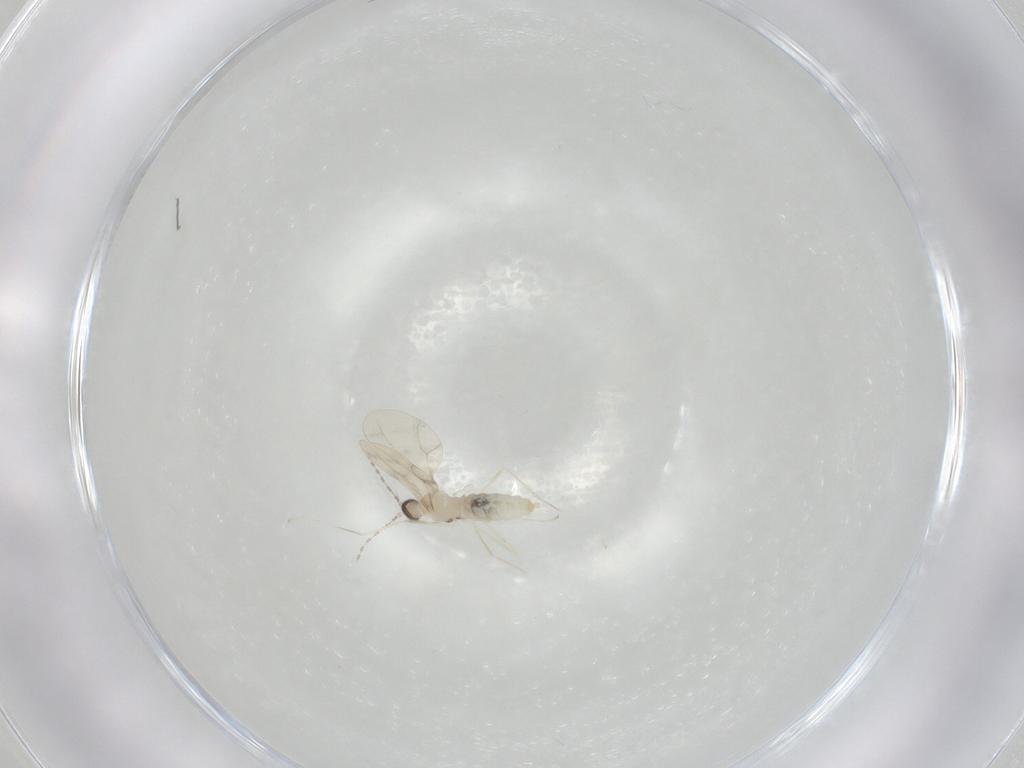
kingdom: Animalia
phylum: Arthropoda
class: Insecta
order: Diptera
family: Cecidomyiidae
